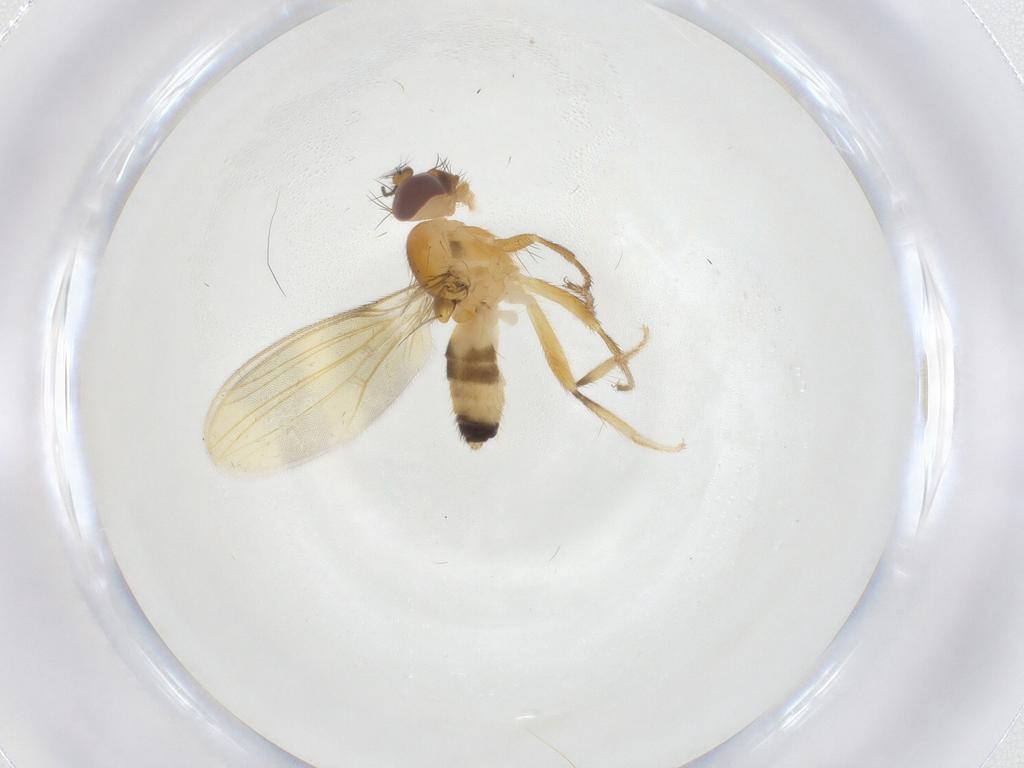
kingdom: Animalia
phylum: Arthropoda
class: Insecta
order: Diptera
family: Periscelididae
